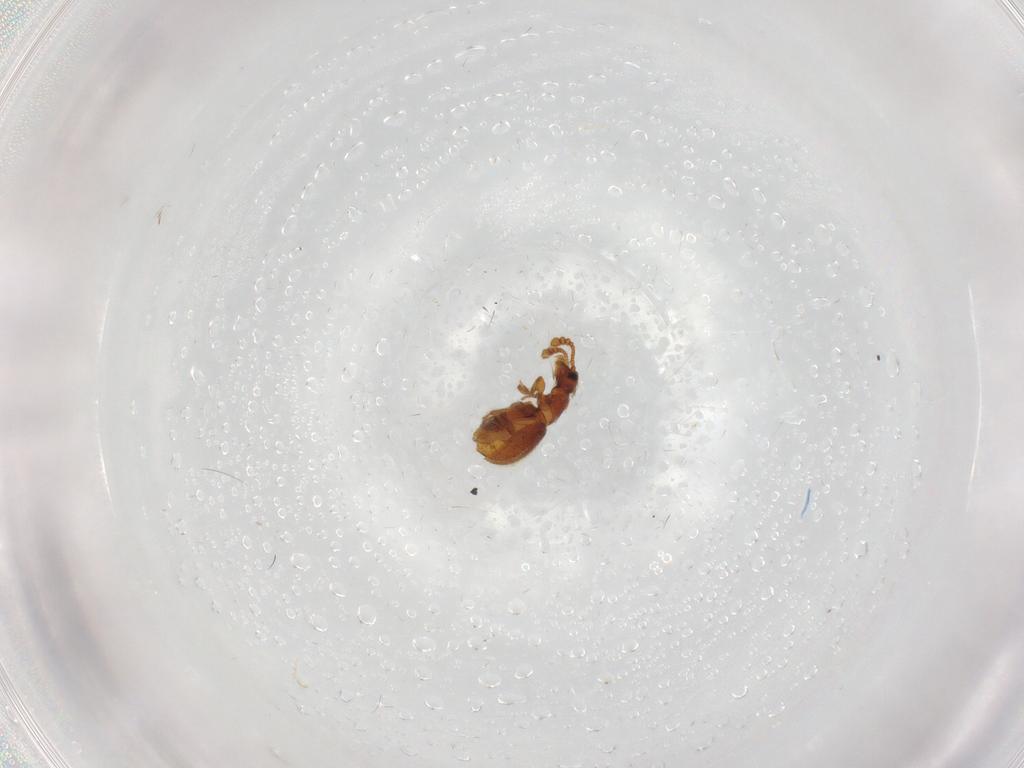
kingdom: Animalia
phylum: Arthropoda
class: Insecta
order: Coleoptera
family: Staphylinidae
